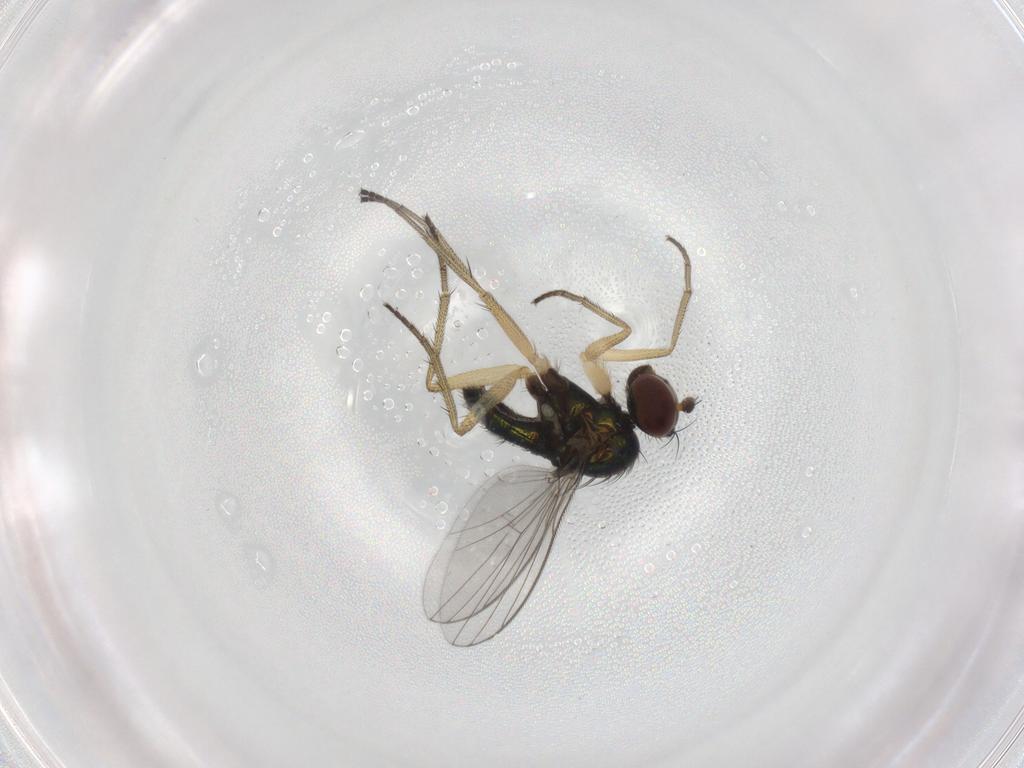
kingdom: Animalia
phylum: Arthropoda
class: Insecta
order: Diptera
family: Dolichopodidae
